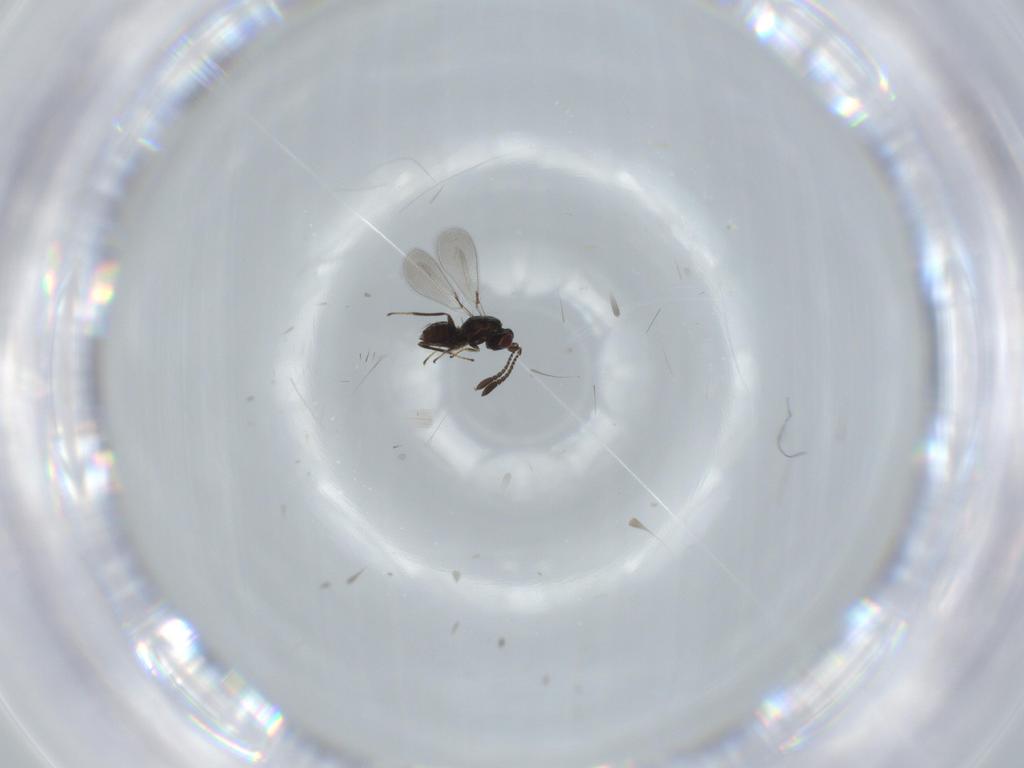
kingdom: Animalia
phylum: Arthropoda
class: Insecta
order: Hymenoptera
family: Mymaridae
